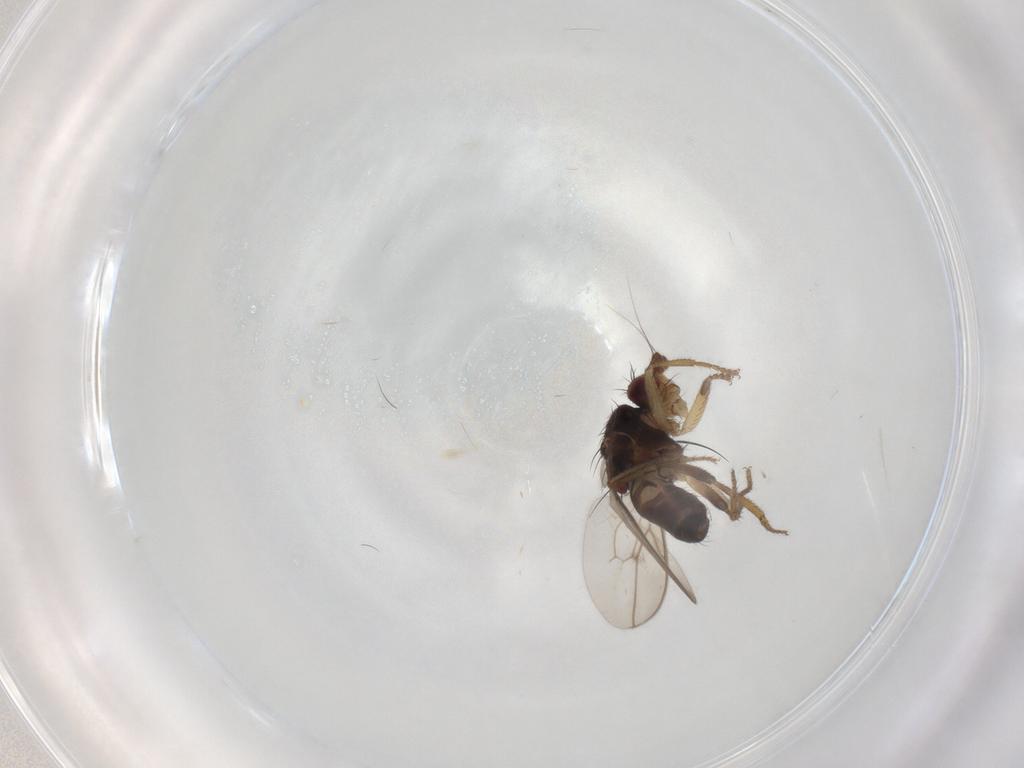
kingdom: Animalia
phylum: Arthropoda
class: Insecta
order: Diptera
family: Sphaeroceridae
